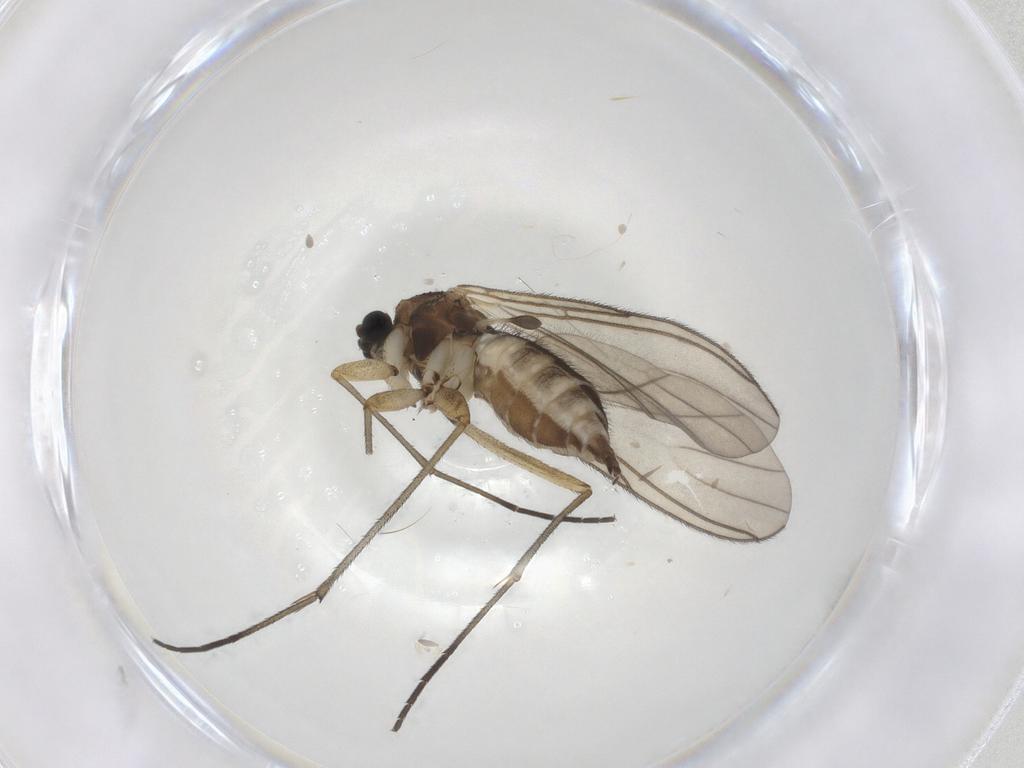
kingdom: Animalia
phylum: Arthropoda
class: Insecta
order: Diptera
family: Sciaridae
